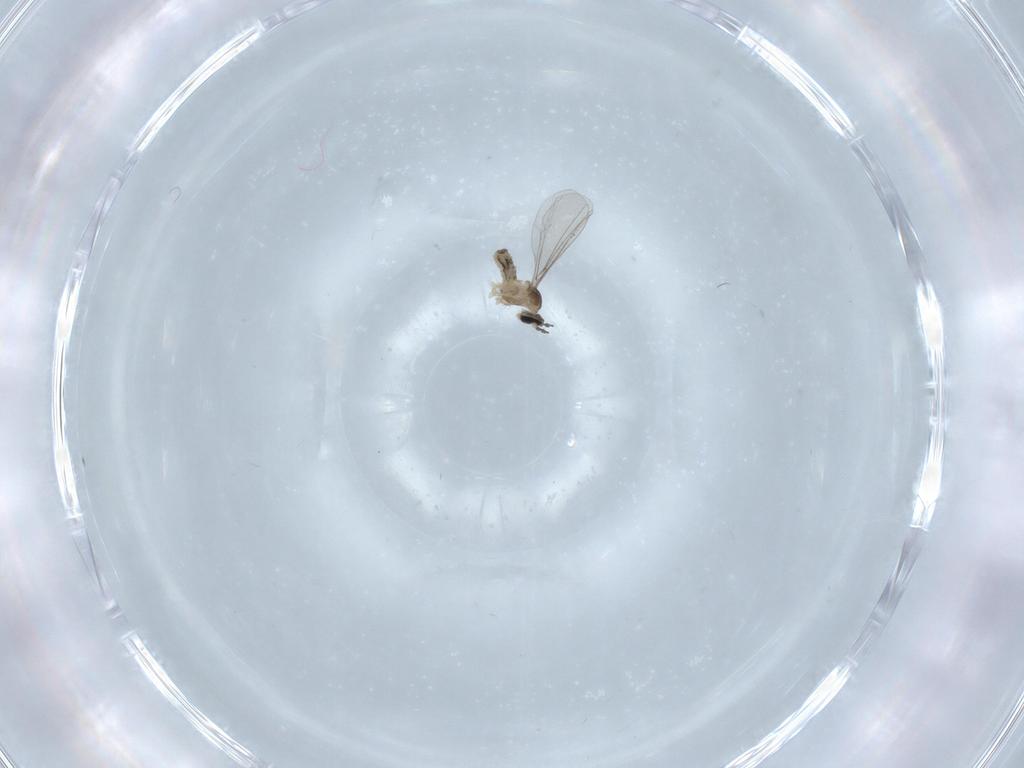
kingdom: Animalia
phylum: Arthropoda
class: Insecta
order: Diptera
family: Cecidomyiidae
